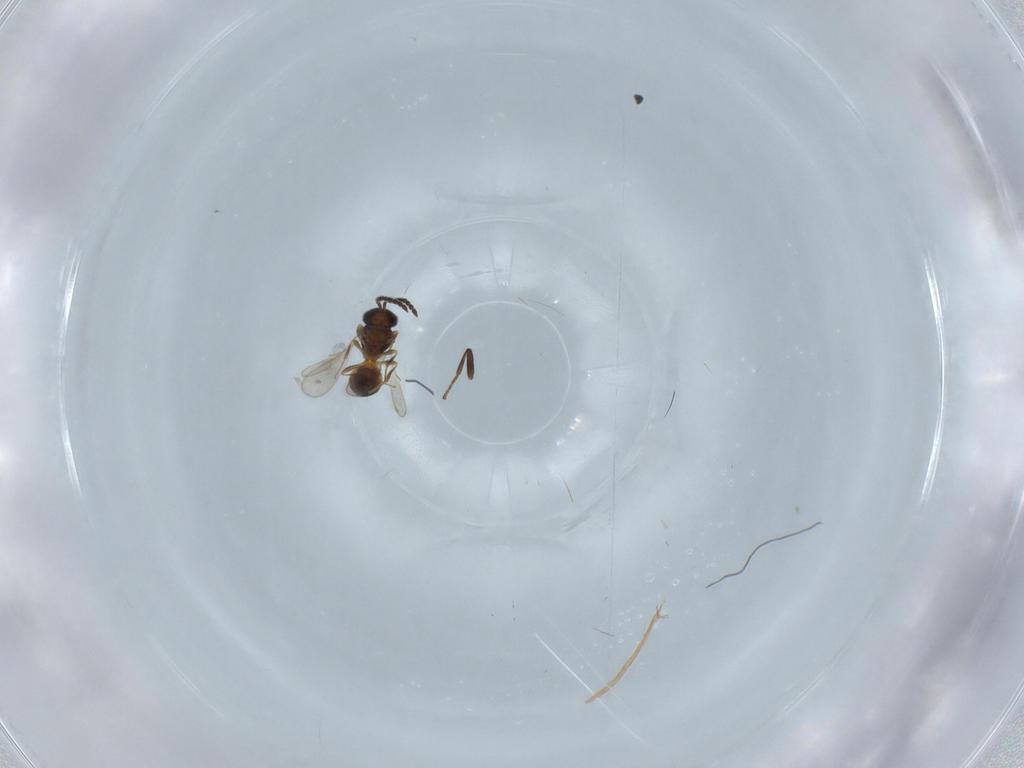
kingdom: Animalia
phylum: Arthropoda
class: Insecta
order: Hymenoptera
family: Scelionidae
